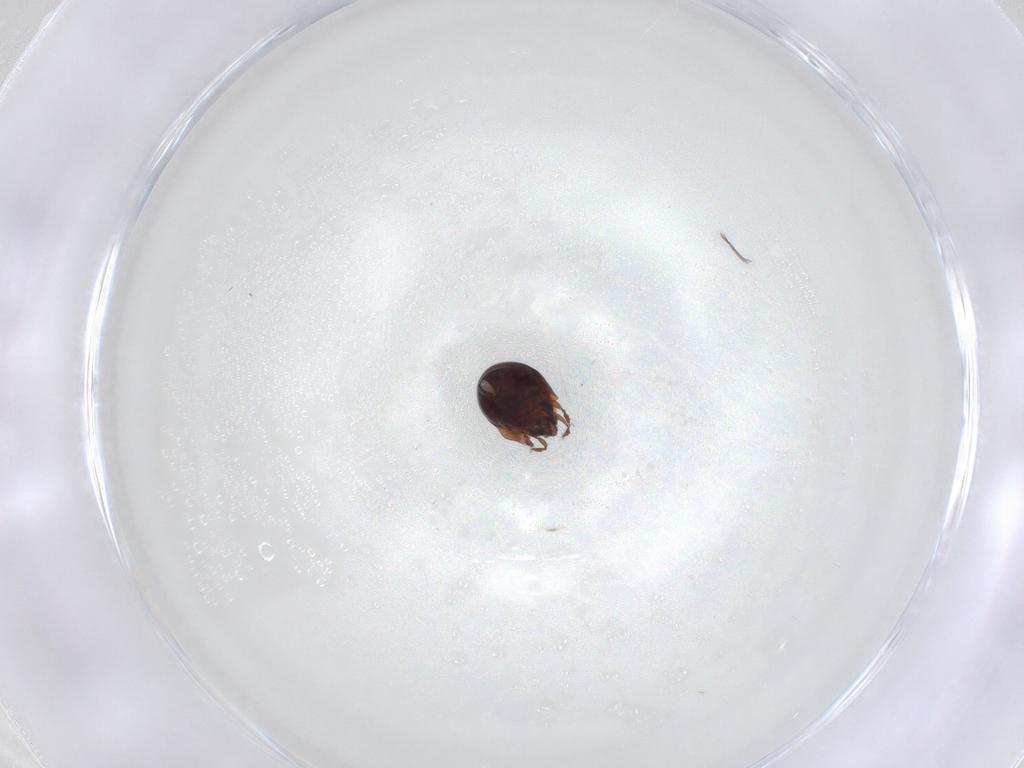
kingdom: Animalia
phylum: Arthropoda
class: Arachnida
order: Sarcoptiformes
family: Humerobatidae
